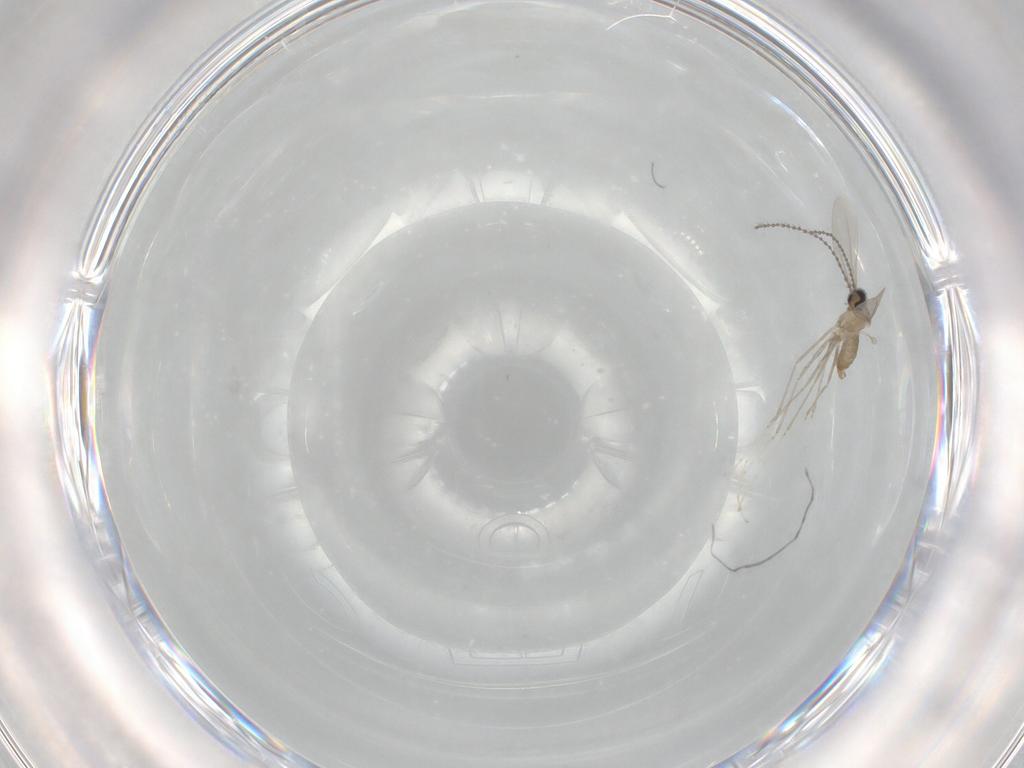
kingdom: Animalia
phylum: Arthropoda
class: Insecta
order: Diptera
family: Cecidomyiidae
